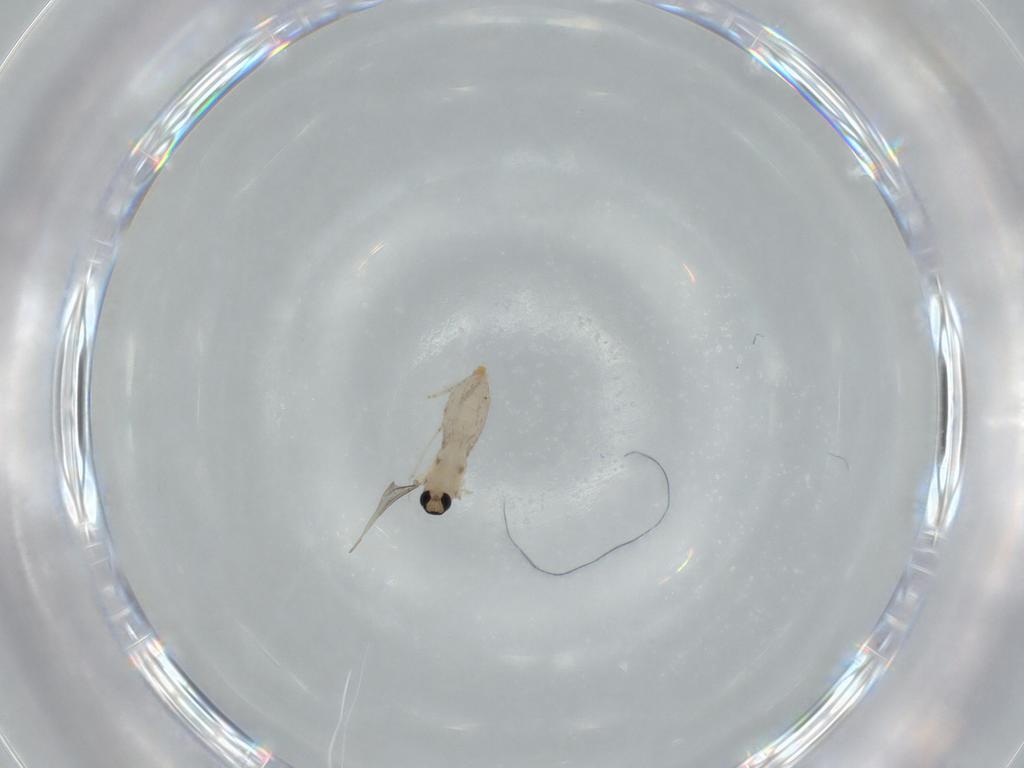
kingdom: Animalia
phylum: Arthropoda
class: Insecta
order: Diptera
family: Cecidomyiidae
